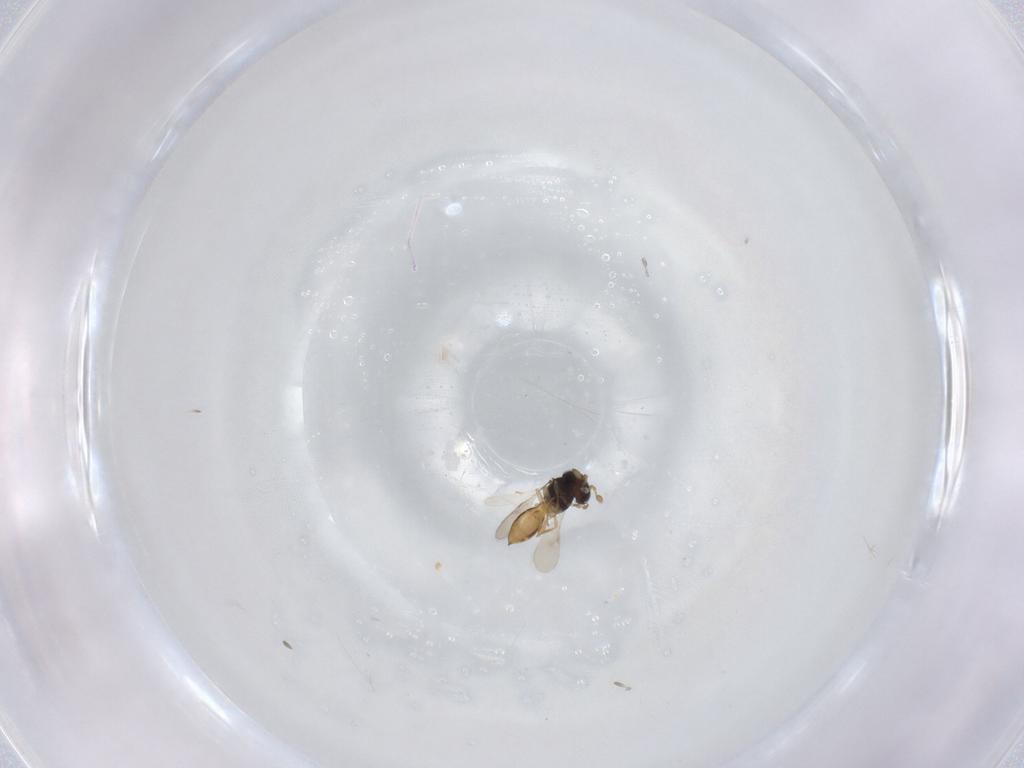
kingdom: Animalia
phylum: Arthropoda
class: Insecta
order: Hymenoptera
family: Scelionidae
